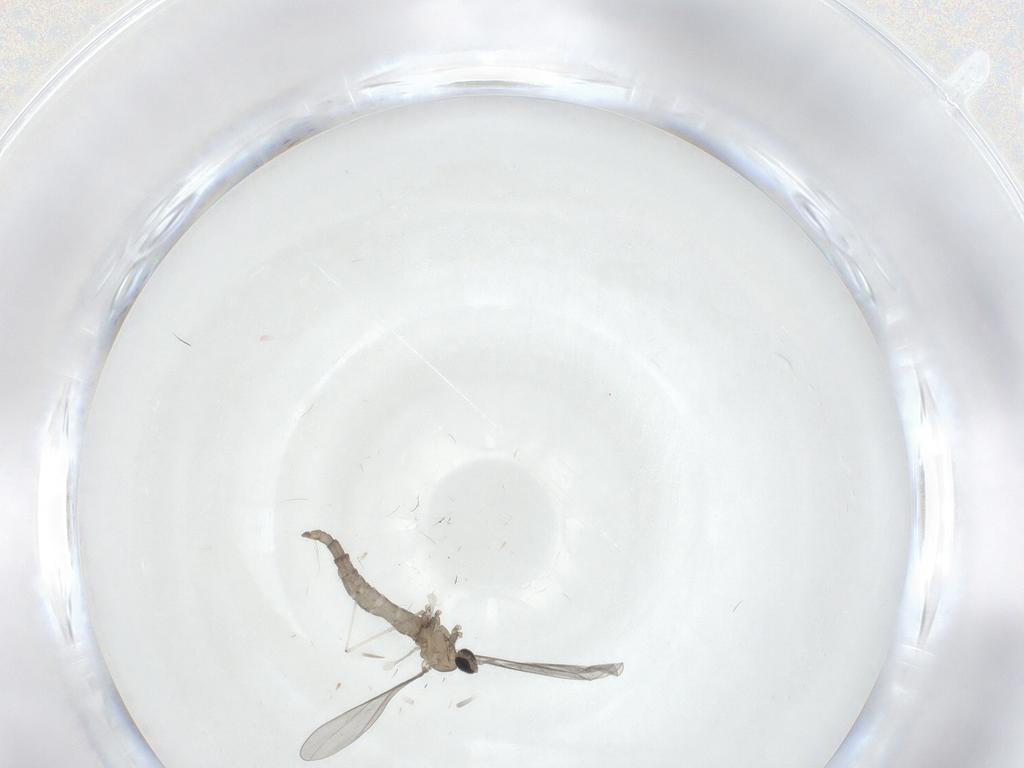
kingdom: Animalia
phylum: Arthropoda
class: Insecta
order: Diptera
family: Cecidomyiidae
